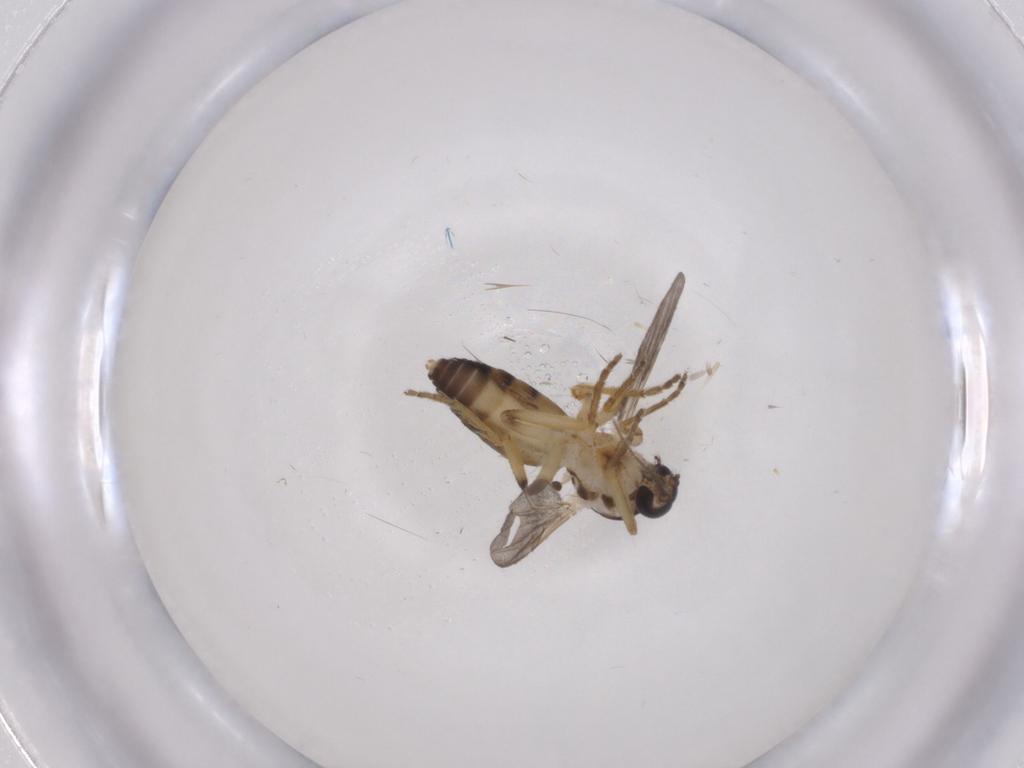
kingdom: Animalia
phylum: Arthropoda
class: Insecta
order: Diptera
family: Ceratopogonidae
